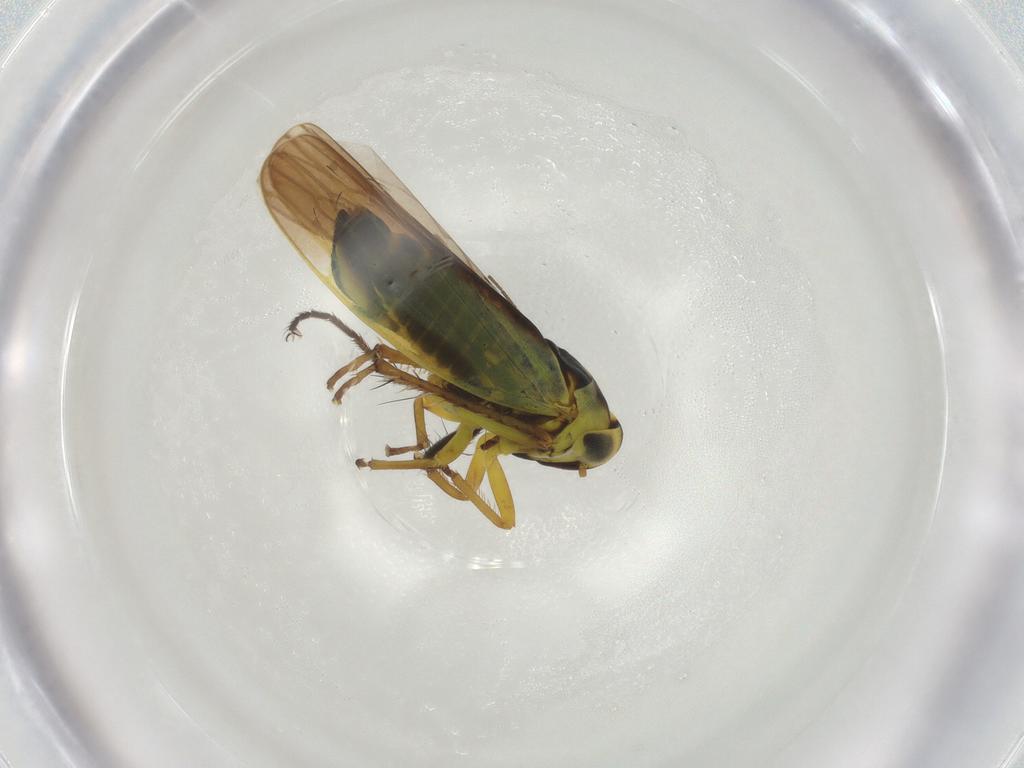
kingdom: Animalia
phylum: Arthropoda
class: Insecta
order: Hemiptera
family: Cicadellidae
